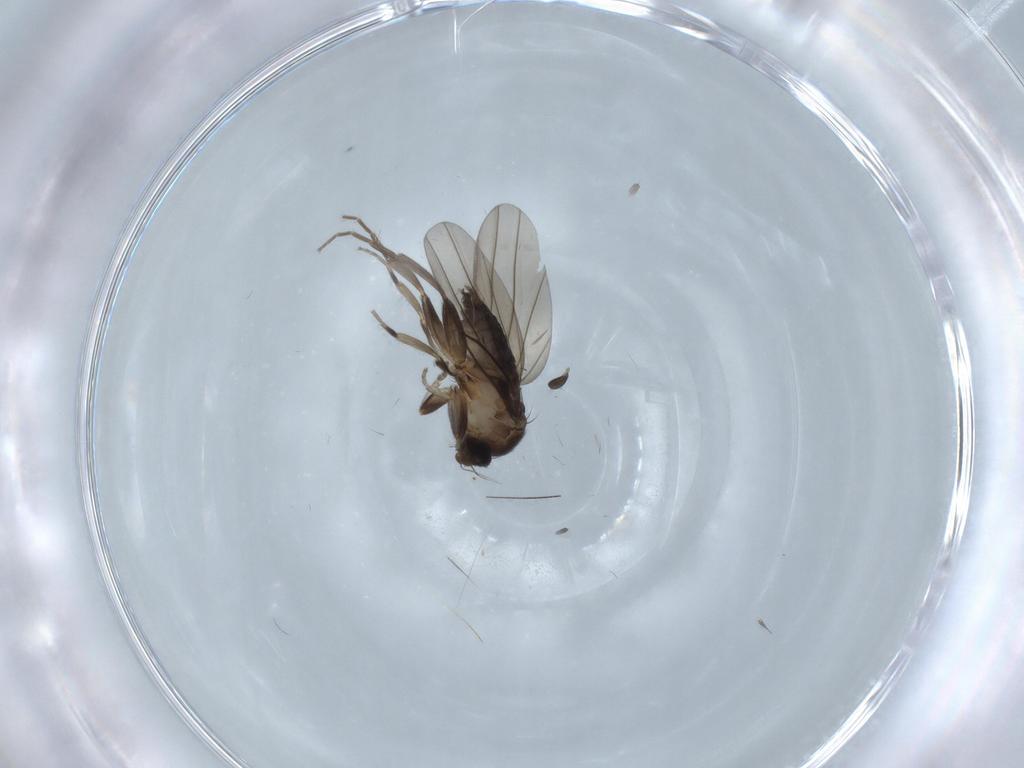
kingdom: Animalia
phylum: Arthropoda
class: Insecta
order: Diptera
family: Phoridae
